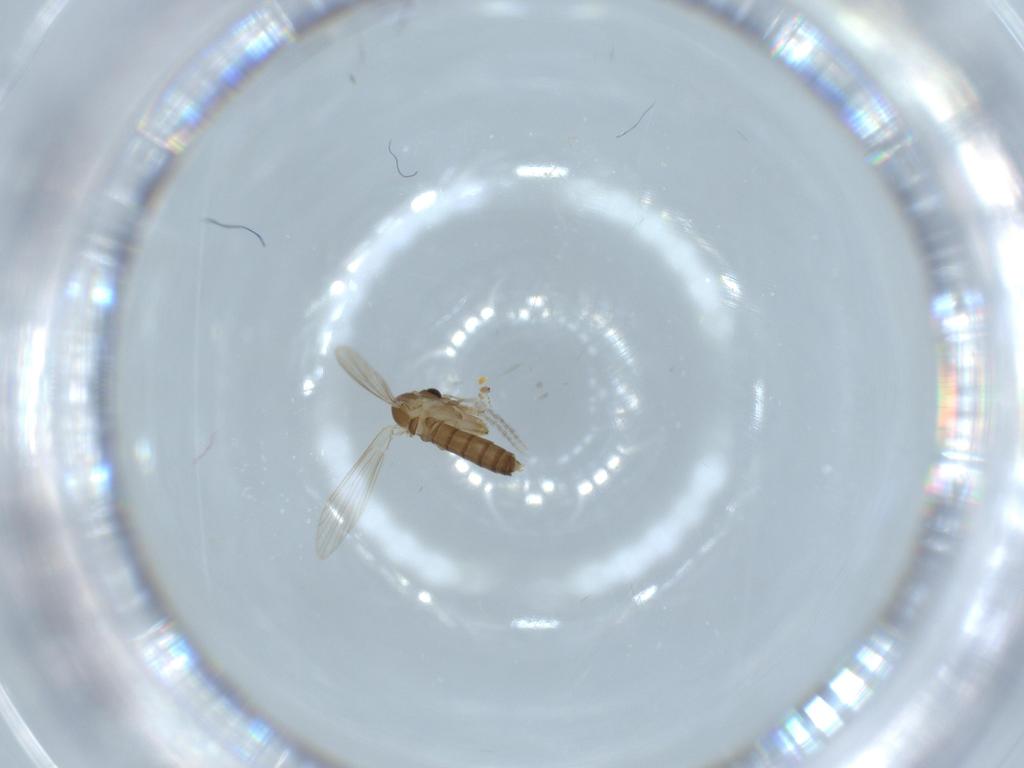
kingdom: Animalia
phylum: Arthropoda
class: Insecta
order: Diptera
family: Psychodidae
